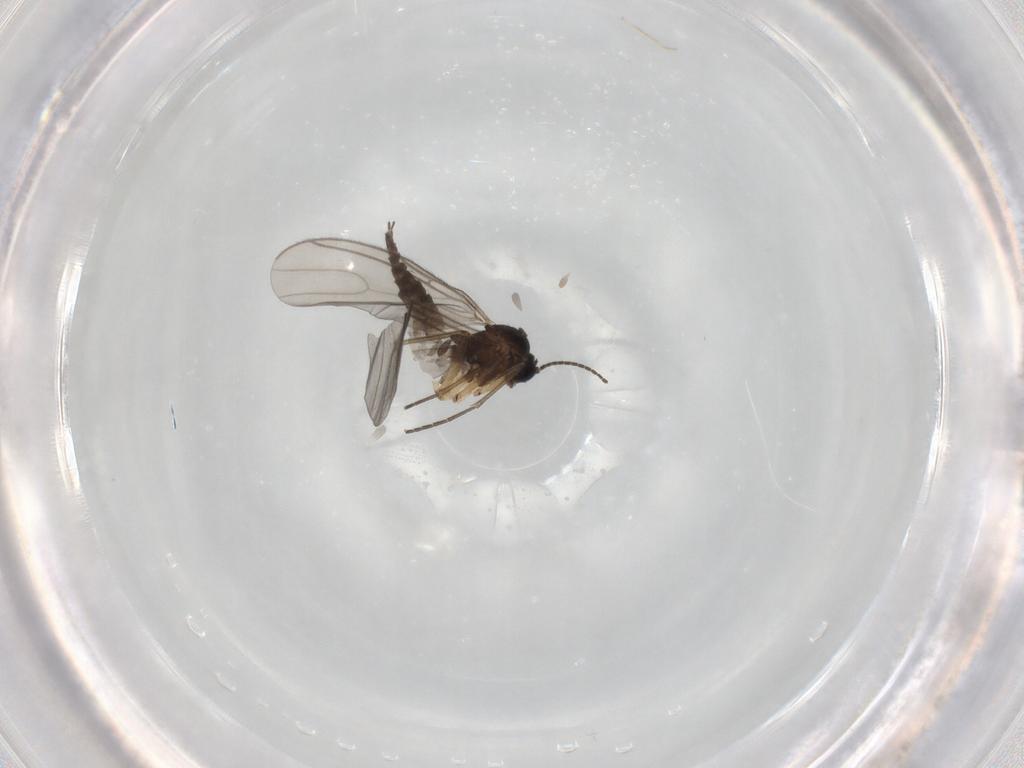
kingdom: Animalia
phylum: Arthropoda
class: Insecta
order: Diptera
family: Sciaridae
